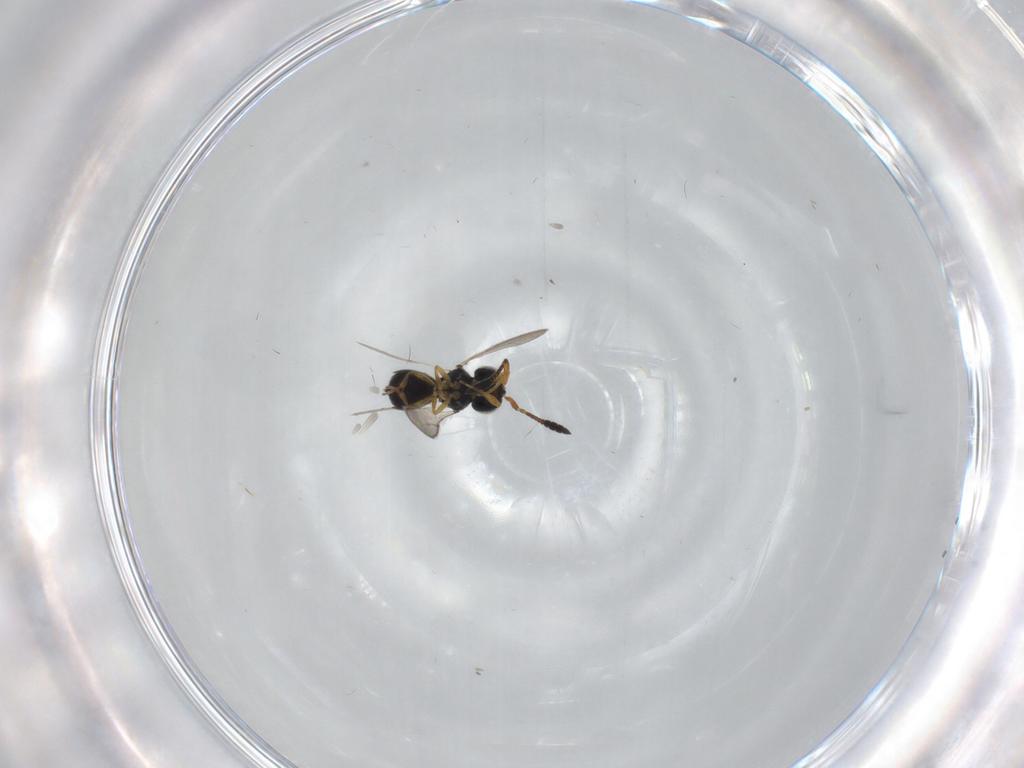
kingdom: Animalia
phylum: Arthropoda
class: Insecta
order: Hymenoptera
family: Scelionidae
